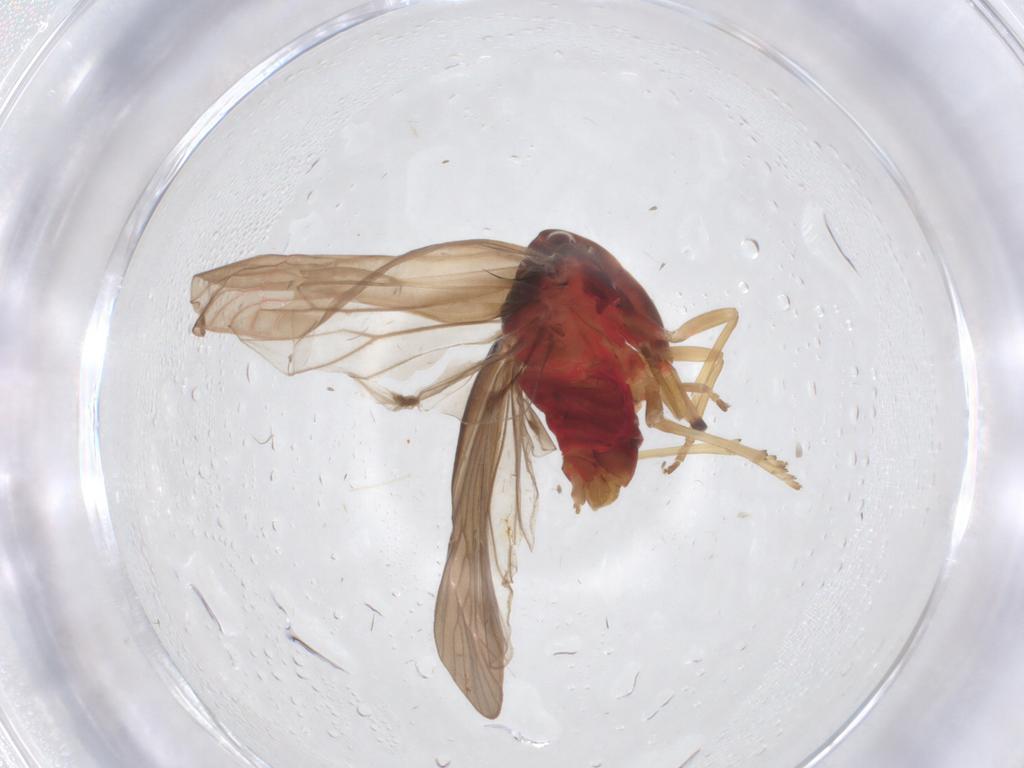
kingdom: Animalia
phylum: Arthropoda
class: Insecta
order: Hemiptera
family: Derbidae
